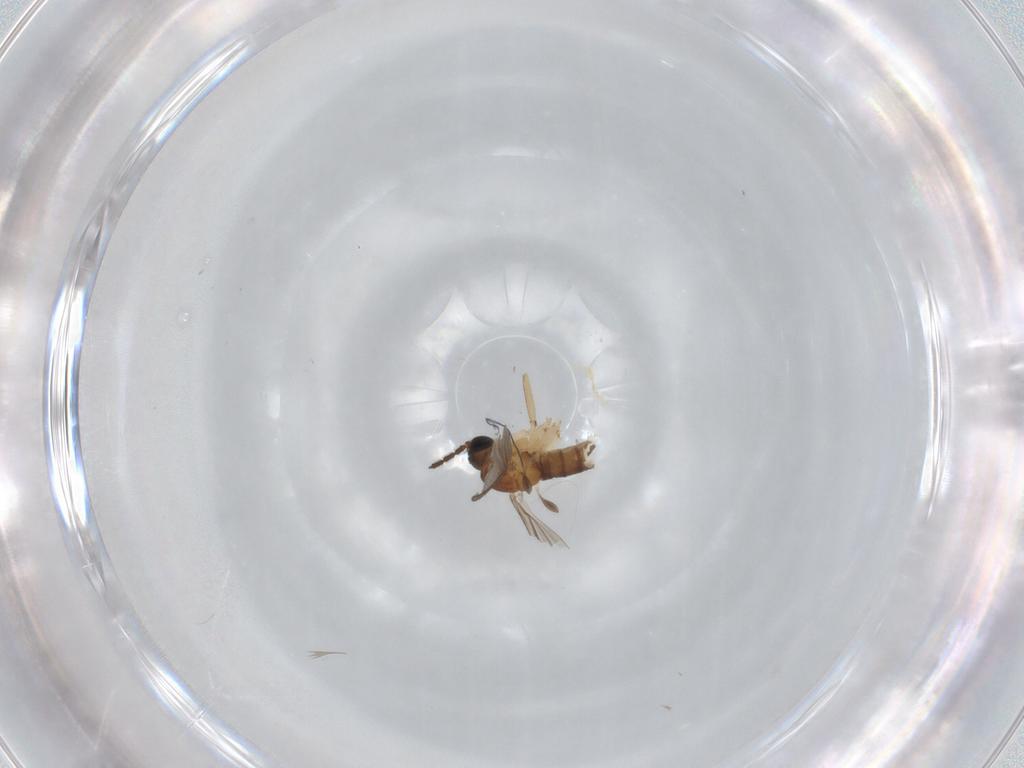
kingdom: Animalia
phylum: Arthropoda
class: Insecta
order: Diptera
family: Sciaridae
